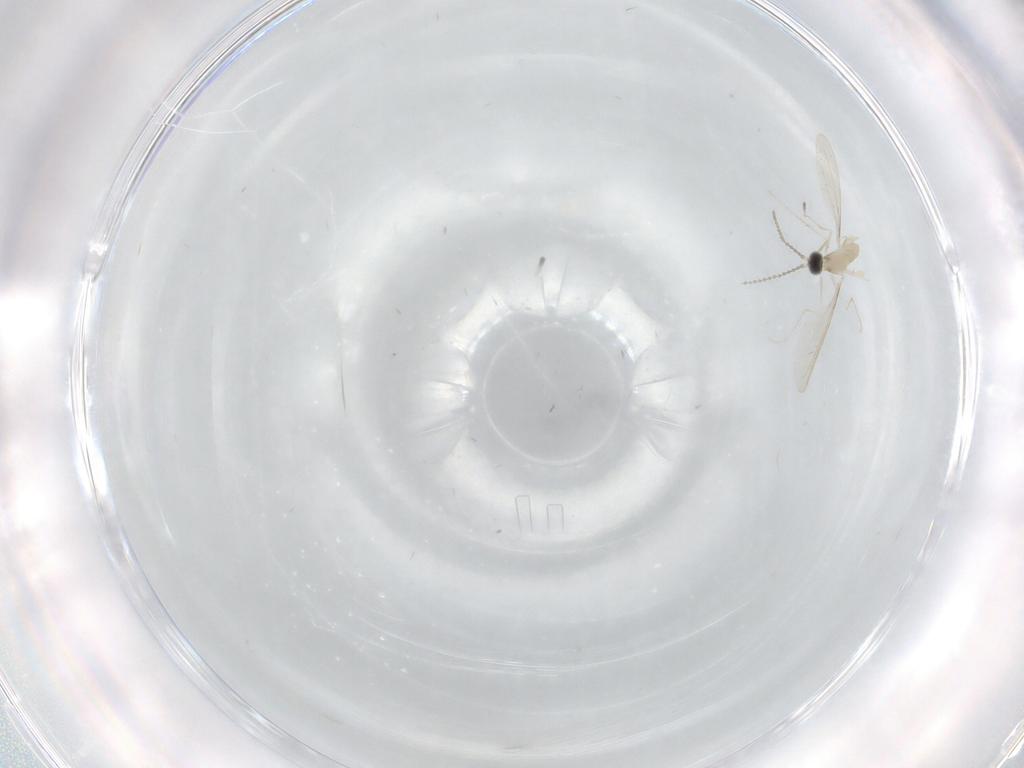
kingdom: Animalia
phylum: Arthropoda
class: Insecta
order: Diptera
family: Cecidomyiidae
